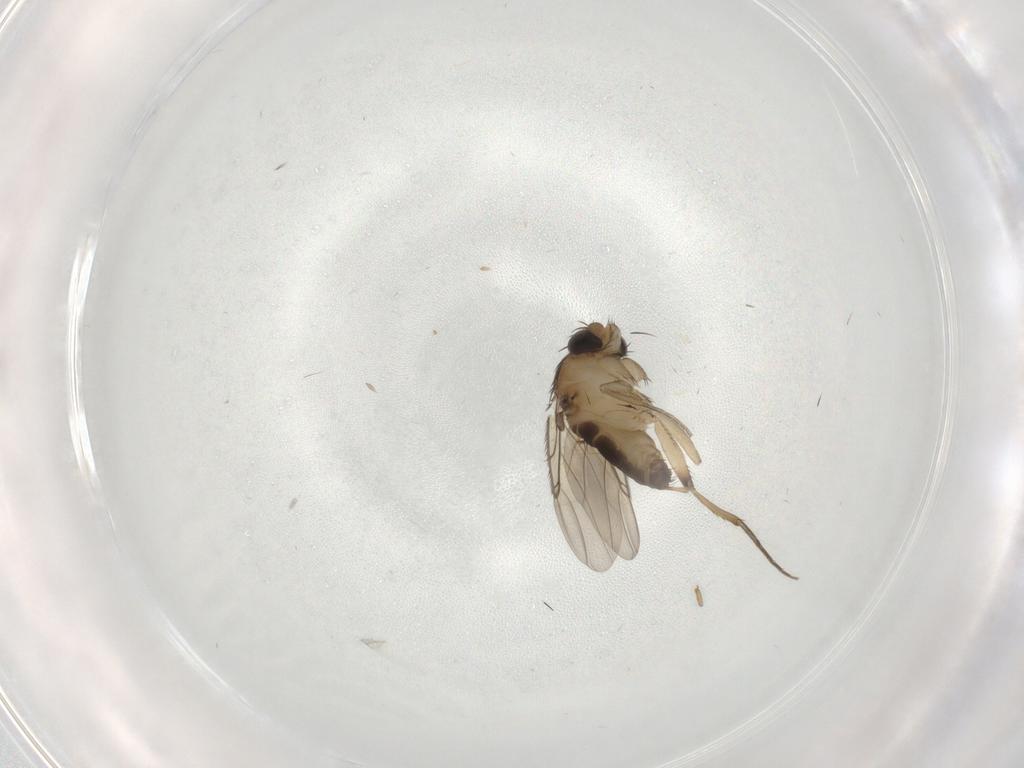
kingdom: Animalia
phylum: Arthropoda
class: Insecta
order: Diptera
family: Phoridae
